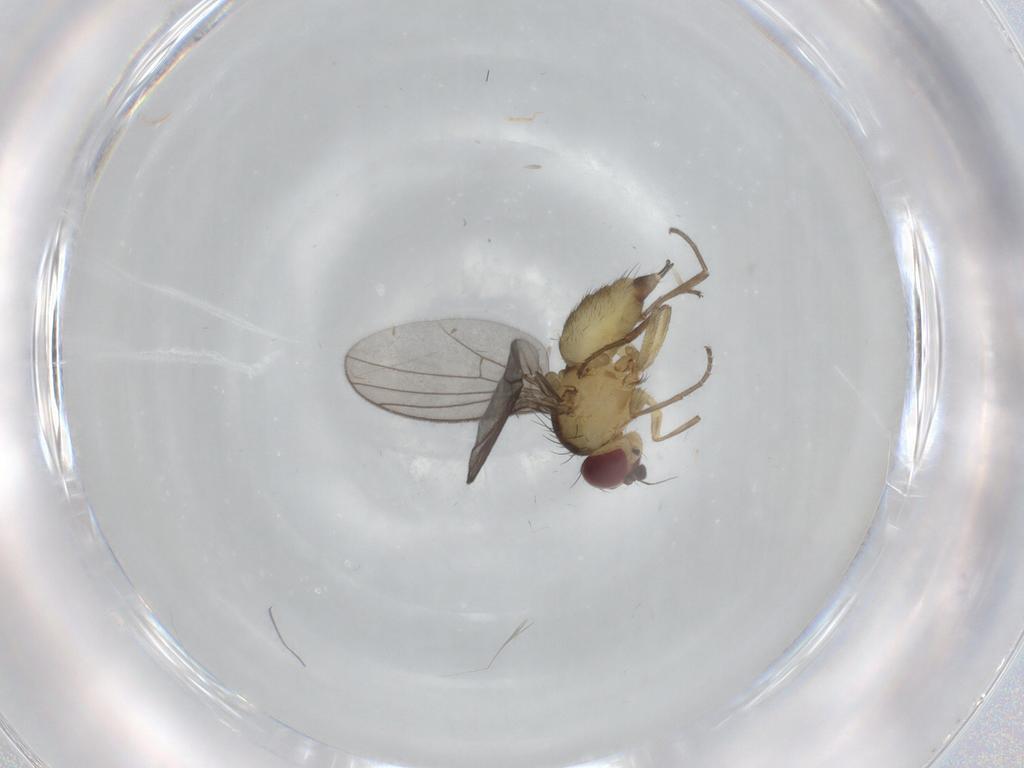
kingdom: Animalia
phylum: Arthropoda
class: Insecta
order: Diptera
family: Agromyzidae
